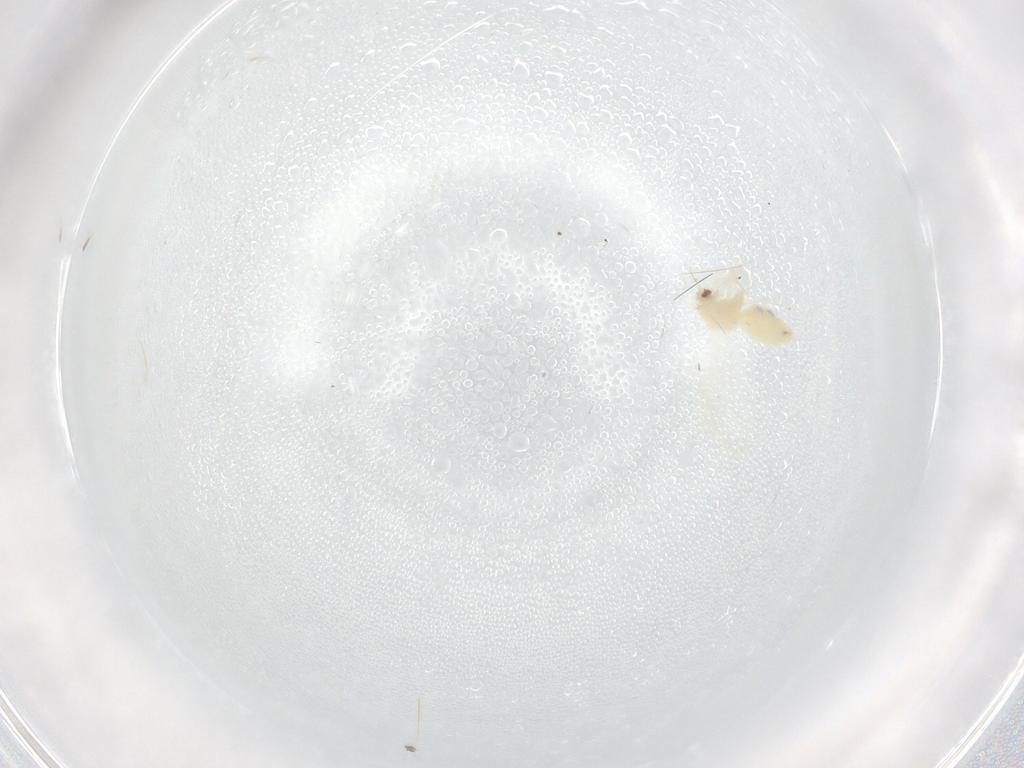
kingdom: Animalia
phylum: Arthropoda
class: Insecta
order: Hemiptera
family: Aleyrodidae
